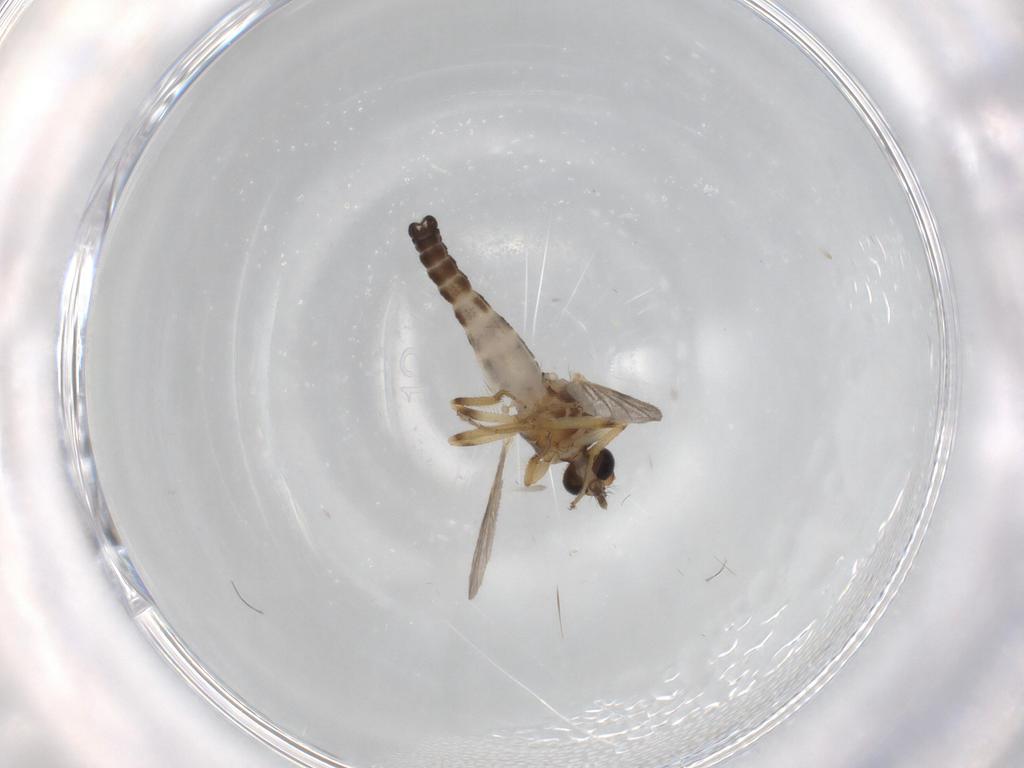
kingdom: Animalia
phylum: Arthropoda
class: Insecta
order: Diptera
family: Ceratopogonidae
